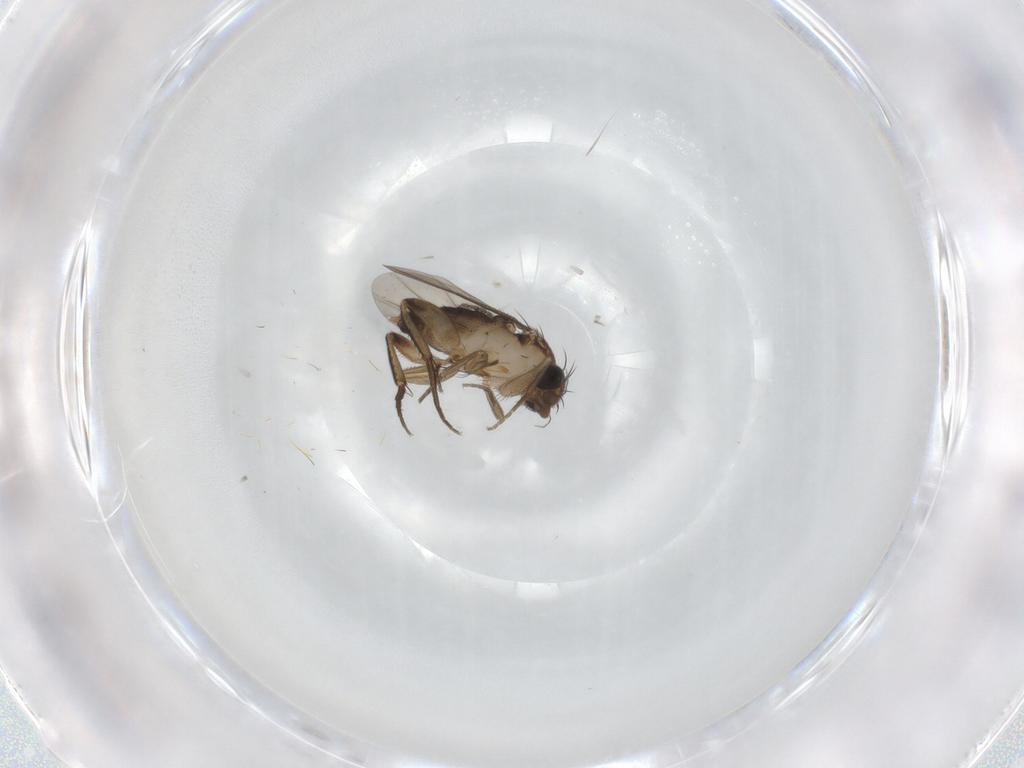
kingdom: Animalia
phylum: Arthropoda
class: Insecta
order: Diptera
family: Phoridae
